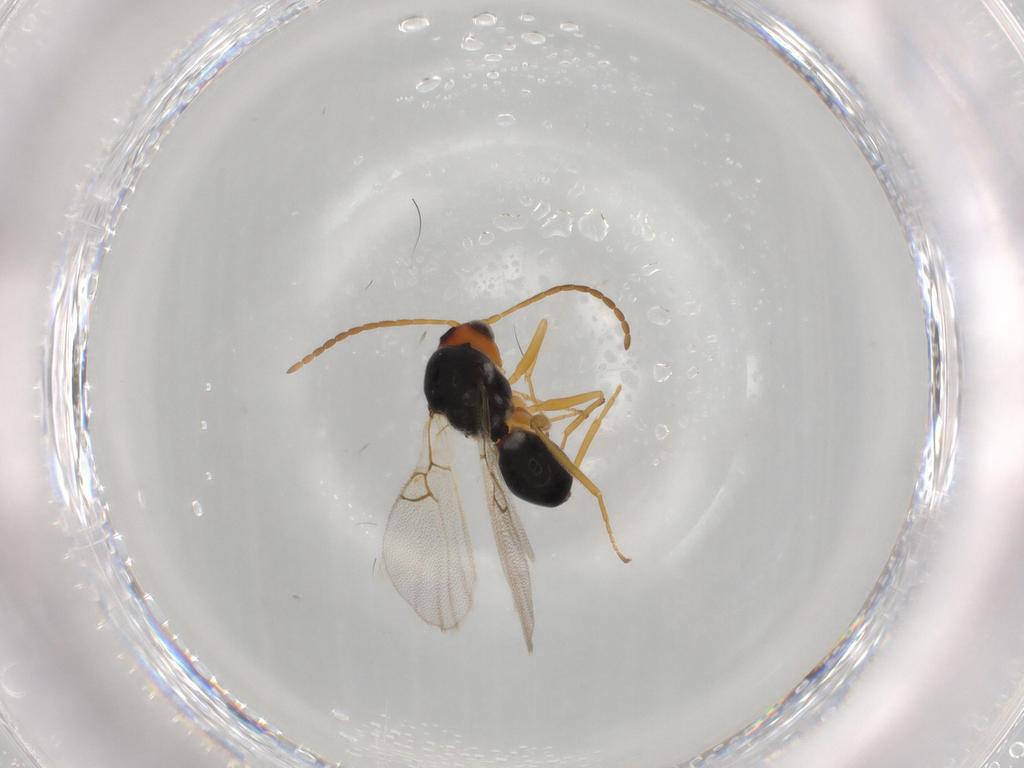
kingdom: Animalia
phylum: Arthropoda
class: Insecta
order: Hymenoptera
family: Figitidae
